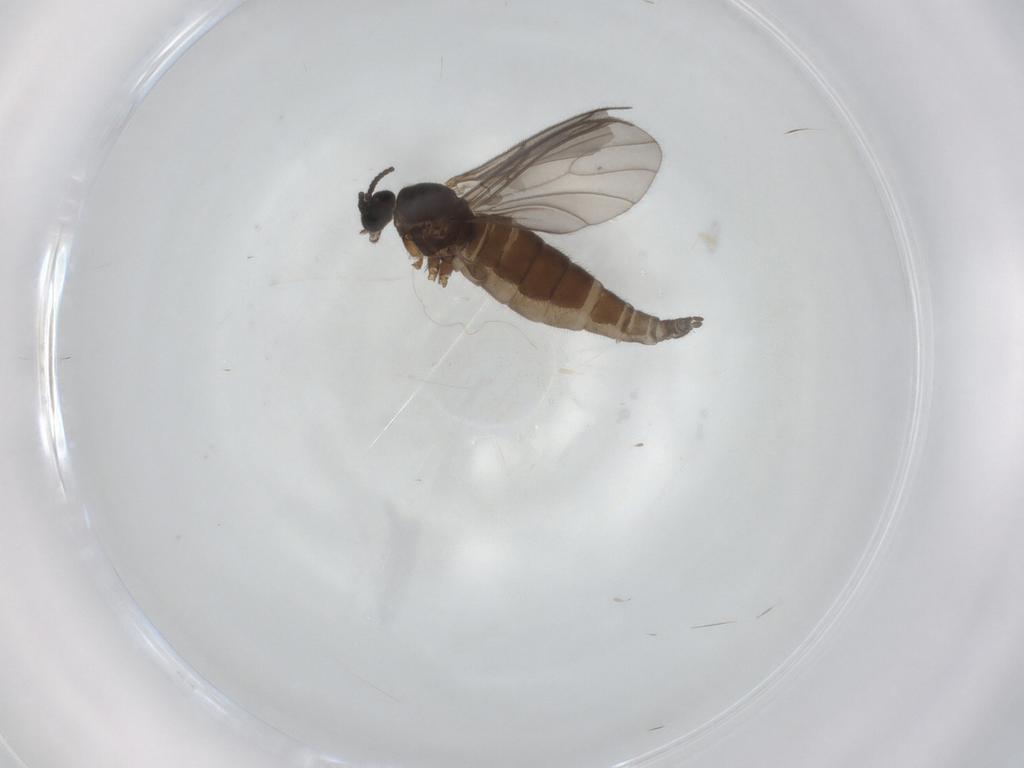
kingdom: Animalia
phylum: Arthropoda
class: Insecta
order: Diptera
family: Sciaridae
